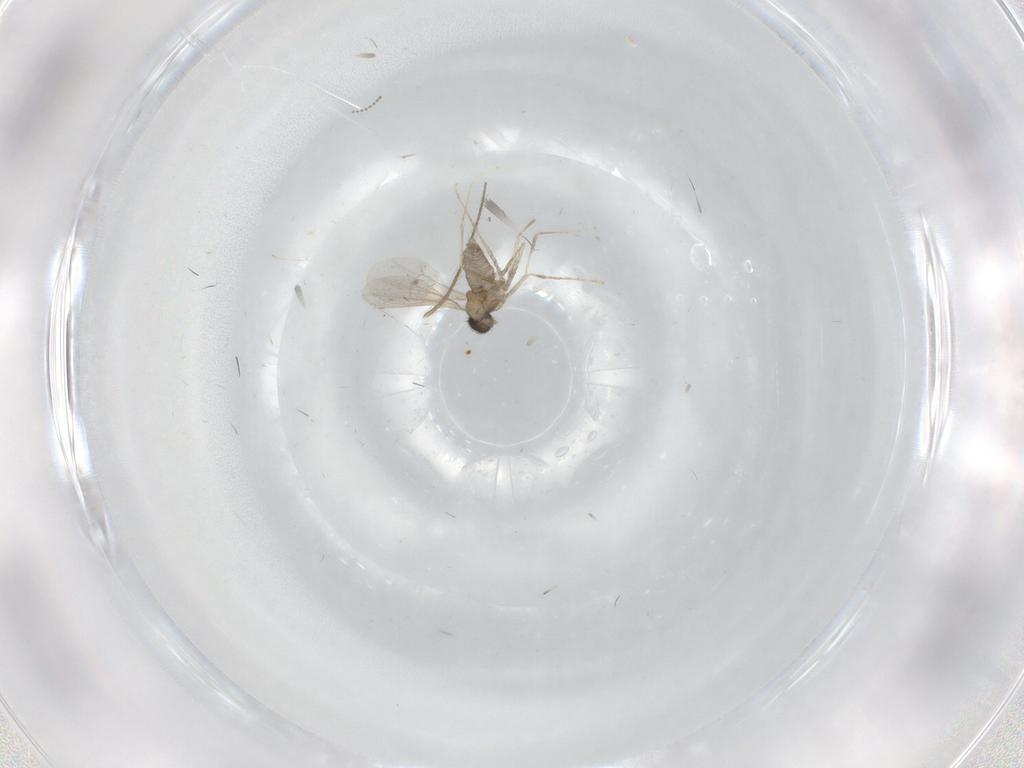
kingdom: Animalia
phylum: Arthropoda
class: Insecta
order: Diptera
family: Cecidomyiidae
